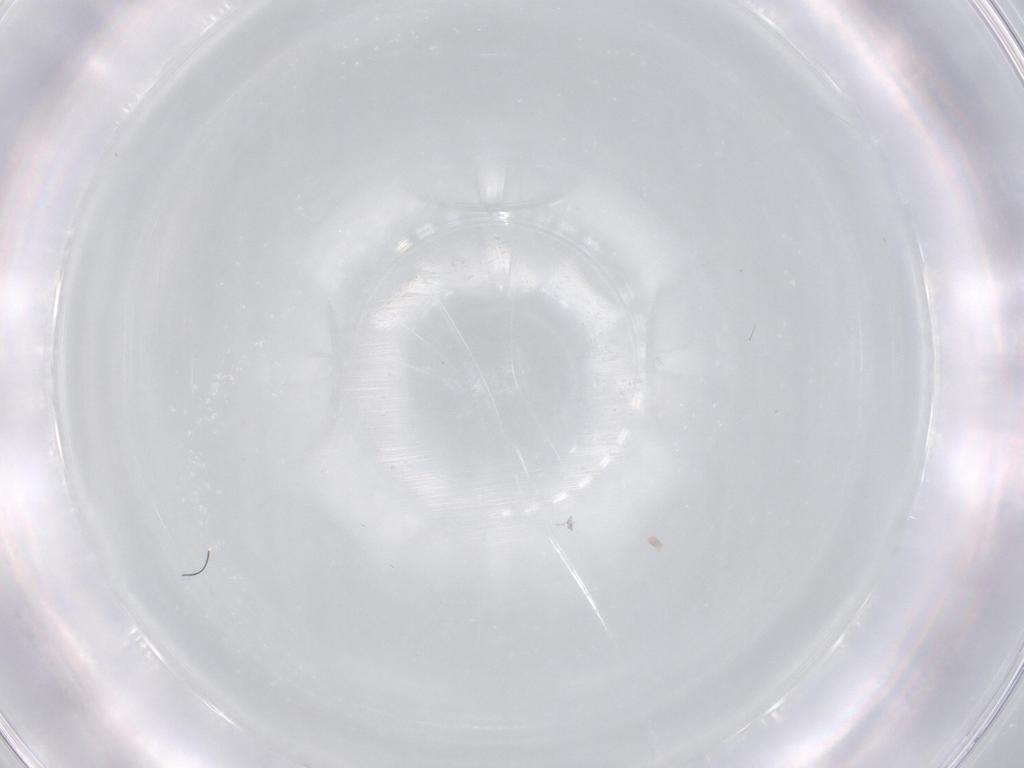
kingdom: Animalia
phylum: Arthropoda
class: Insecta
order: Diptera
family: Cecidomyiidae
